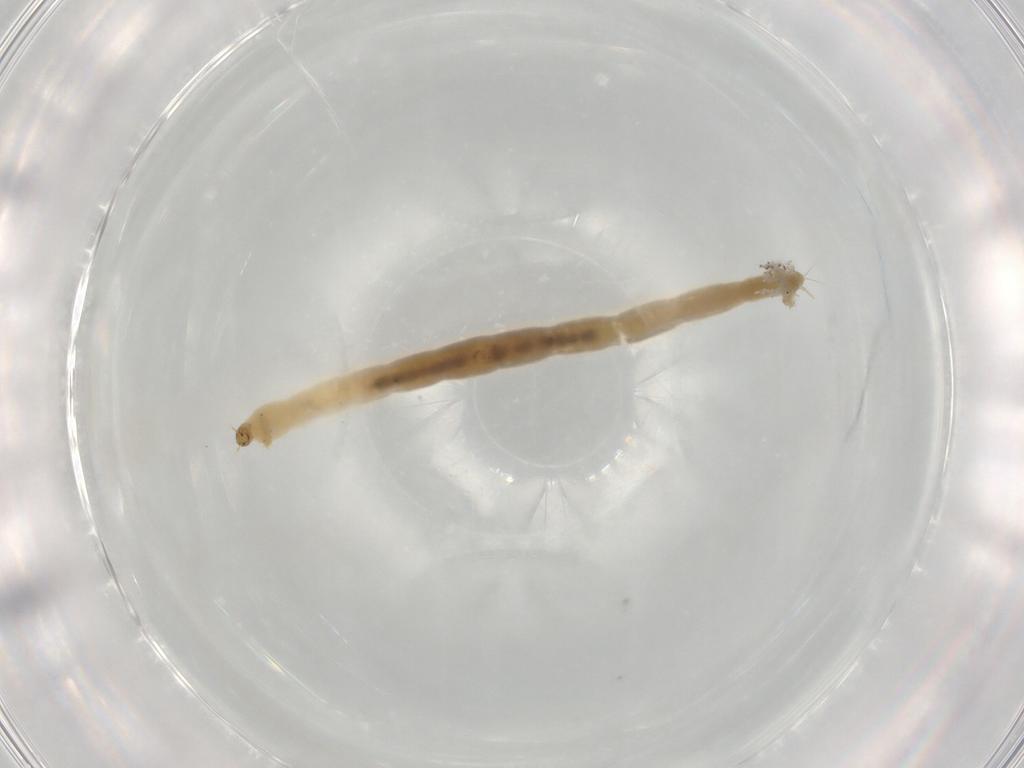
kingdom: Animalia
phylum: Arthropoda
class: Insecta
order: Diptera
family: Chironomidae
